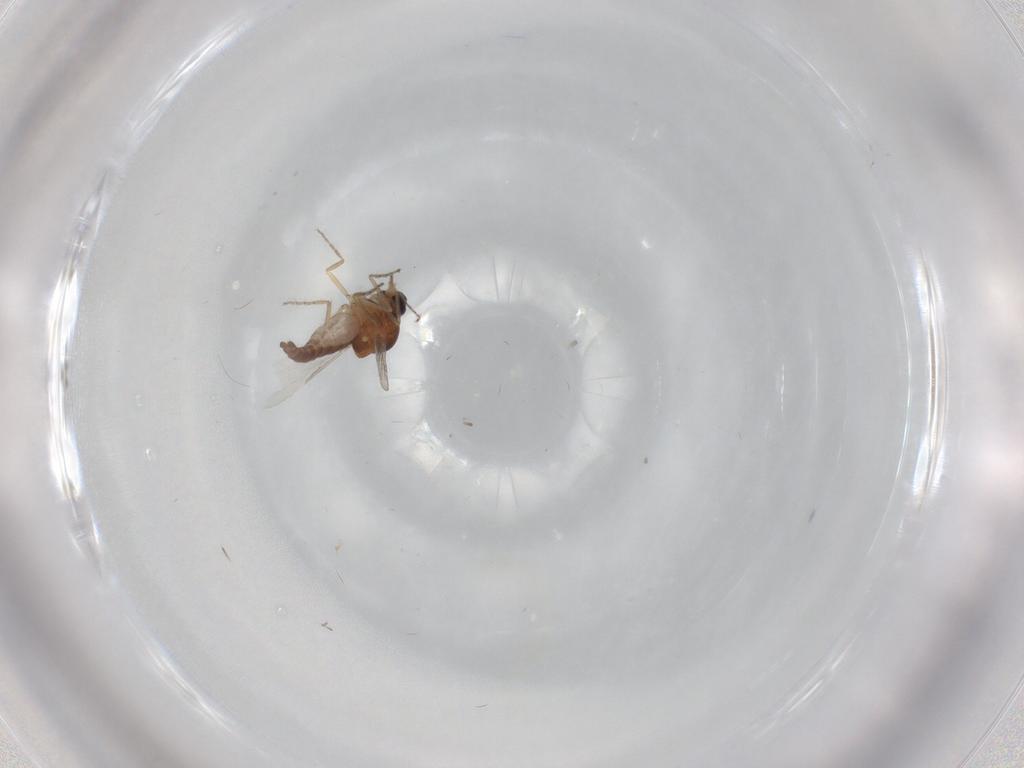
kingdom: Animalia
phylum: Arthropoda
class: Insecta
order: Diptera
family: Ceratopogonidae
